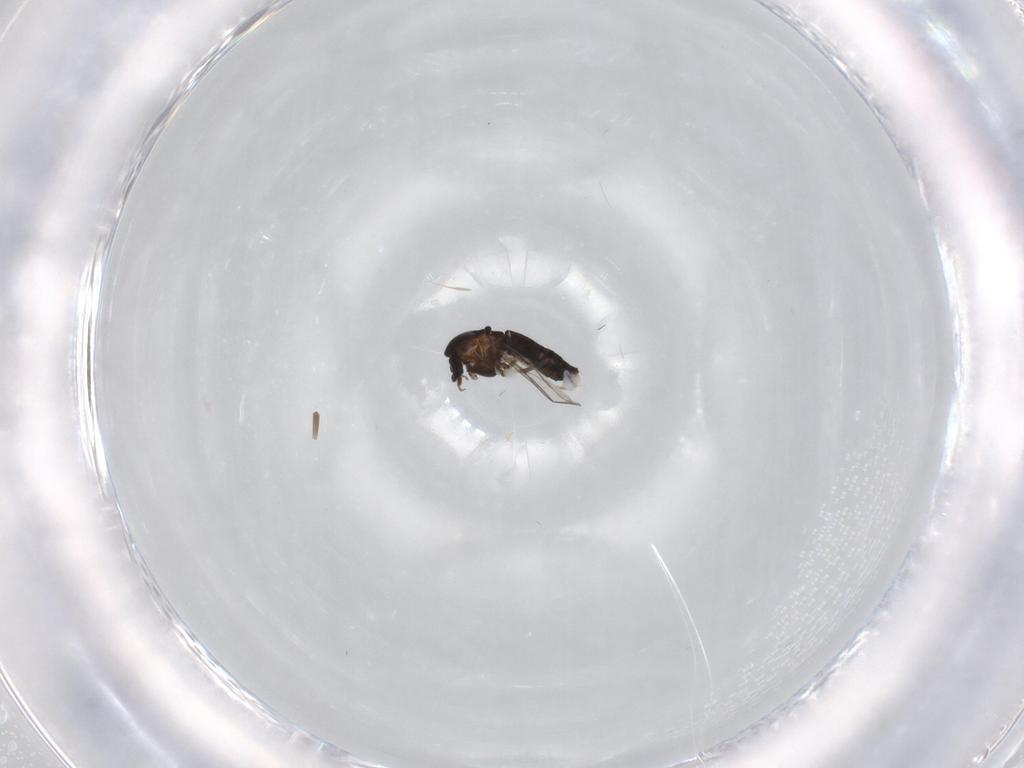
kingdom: Animalia
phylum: Arthropoda
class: Insecta
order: Diptera
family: Chironomidae
